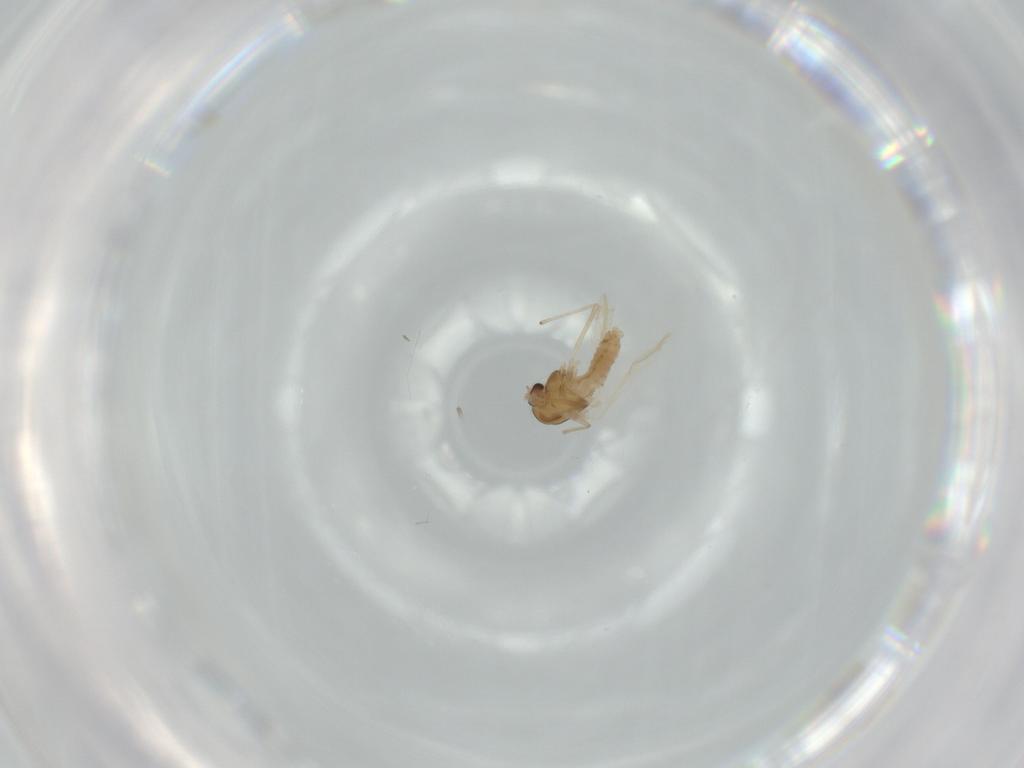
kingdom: Animalia
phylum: Arthropoda
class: Insecta
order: Diptera
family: Chironomidae
